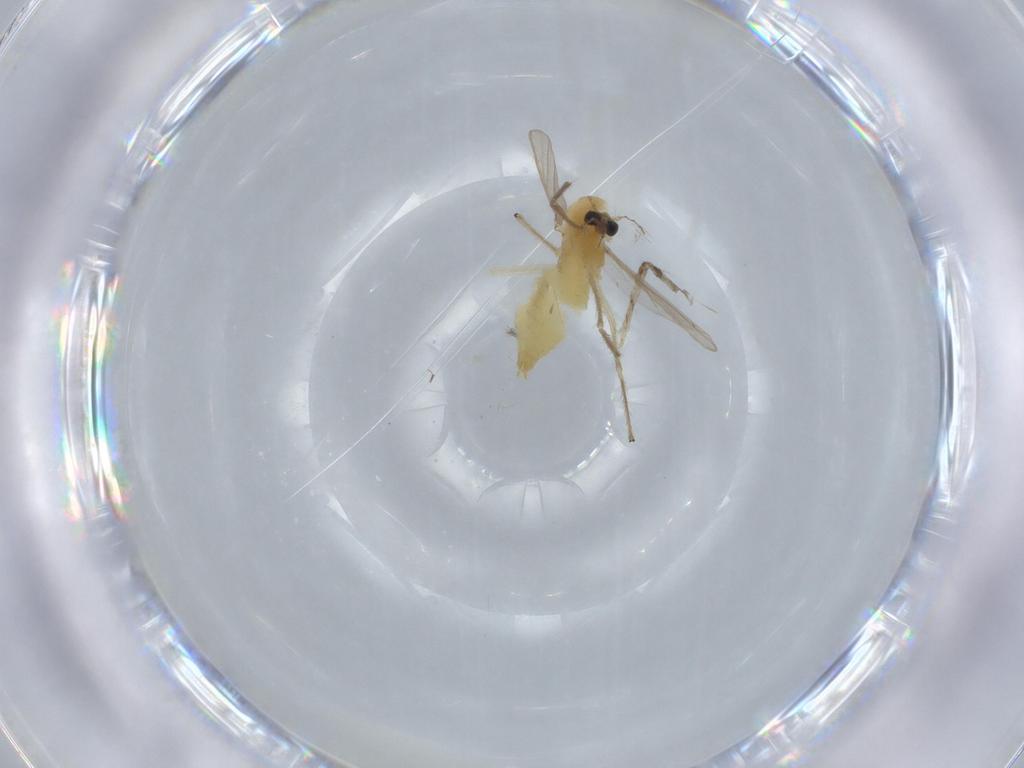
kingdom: Animalia
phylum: Arthropoda
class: Insecta
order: Diptera
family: Chironomidae
